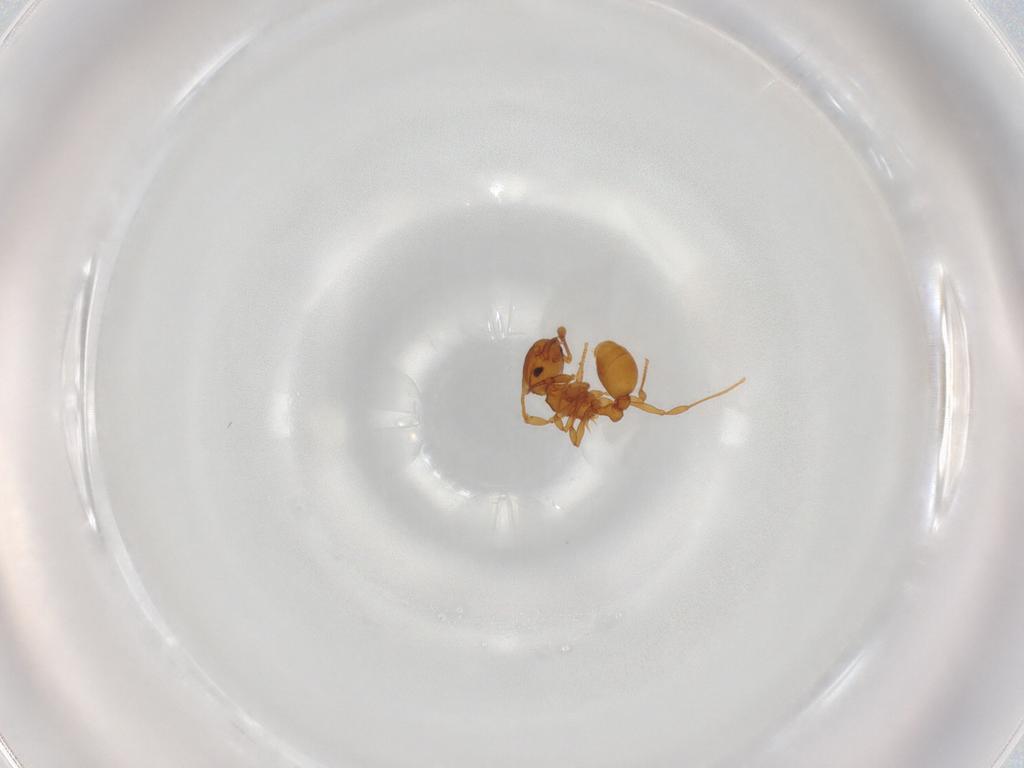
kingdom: Animalia
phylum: Arthropoda
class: Insecta
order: Hymenoptera
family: Formicidae
